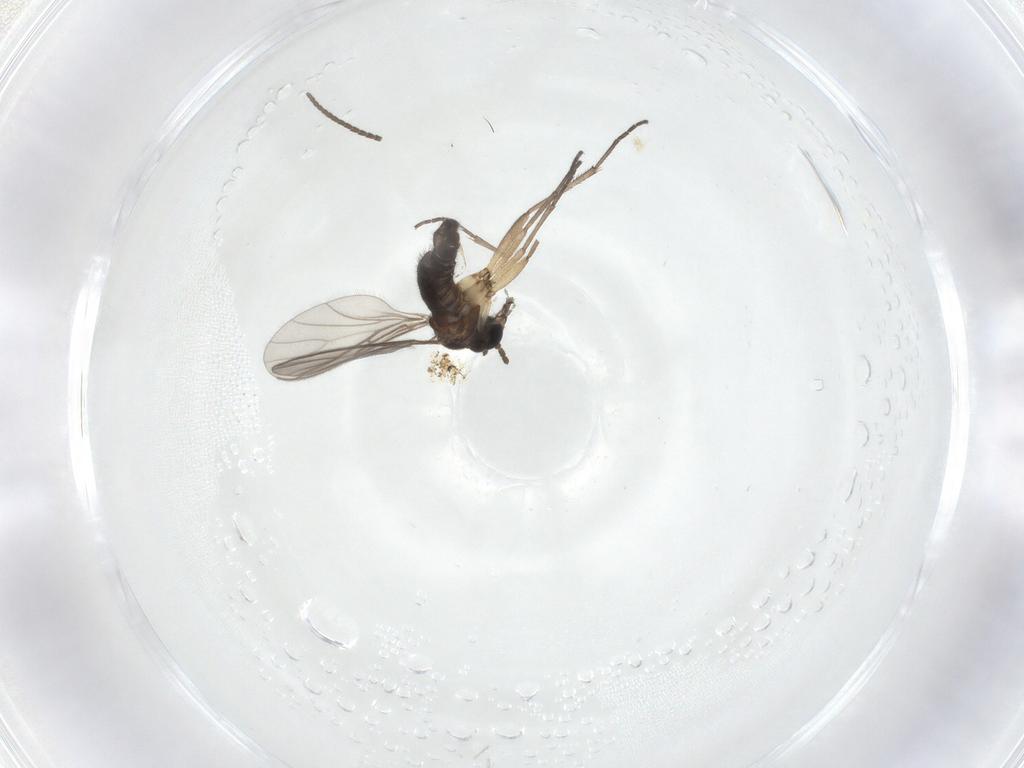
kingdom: Animalia
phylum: Arthropoda
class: Insecta
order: Diptera
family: Sciaridae
